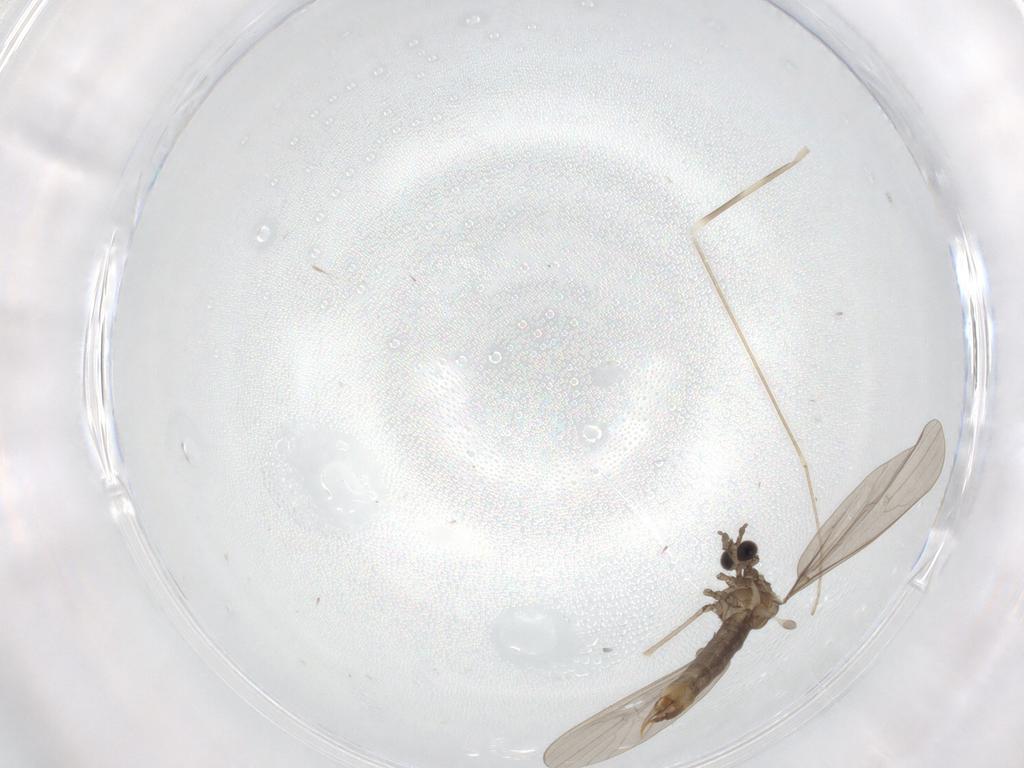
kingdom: Animalia
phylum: Arthropoda
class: Insecta
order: Diptera
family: Limoniidae
